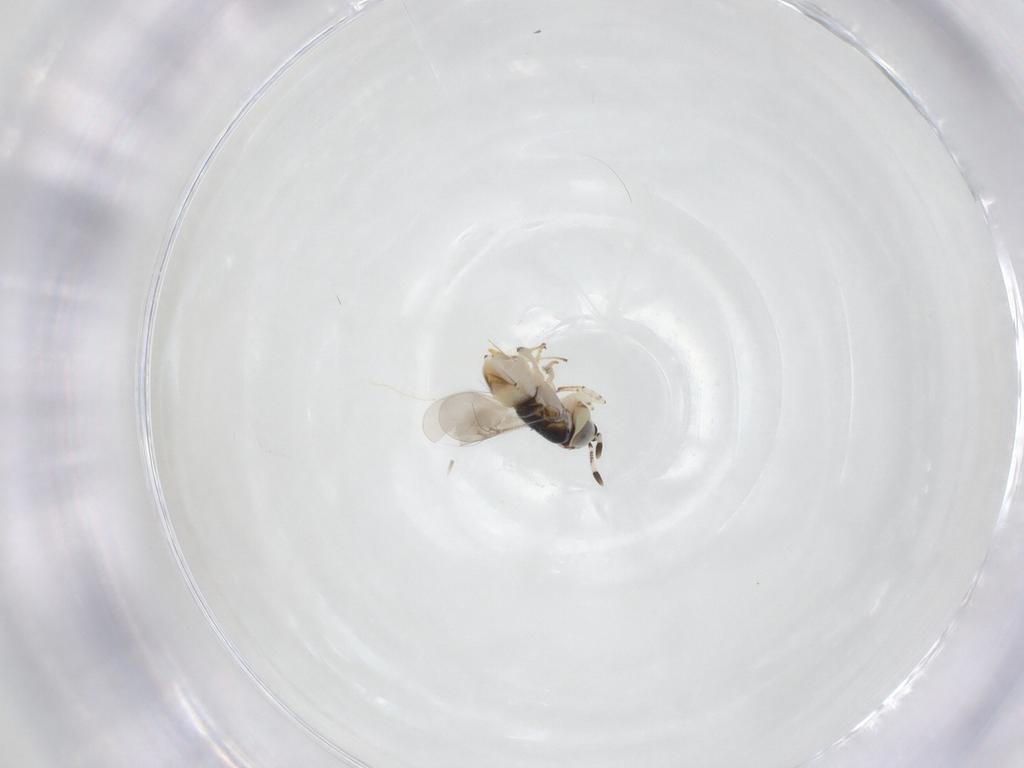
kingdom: Animalia
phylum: Arthropoda
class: Insecta
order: Hymenoptera
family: Encyrtidae
